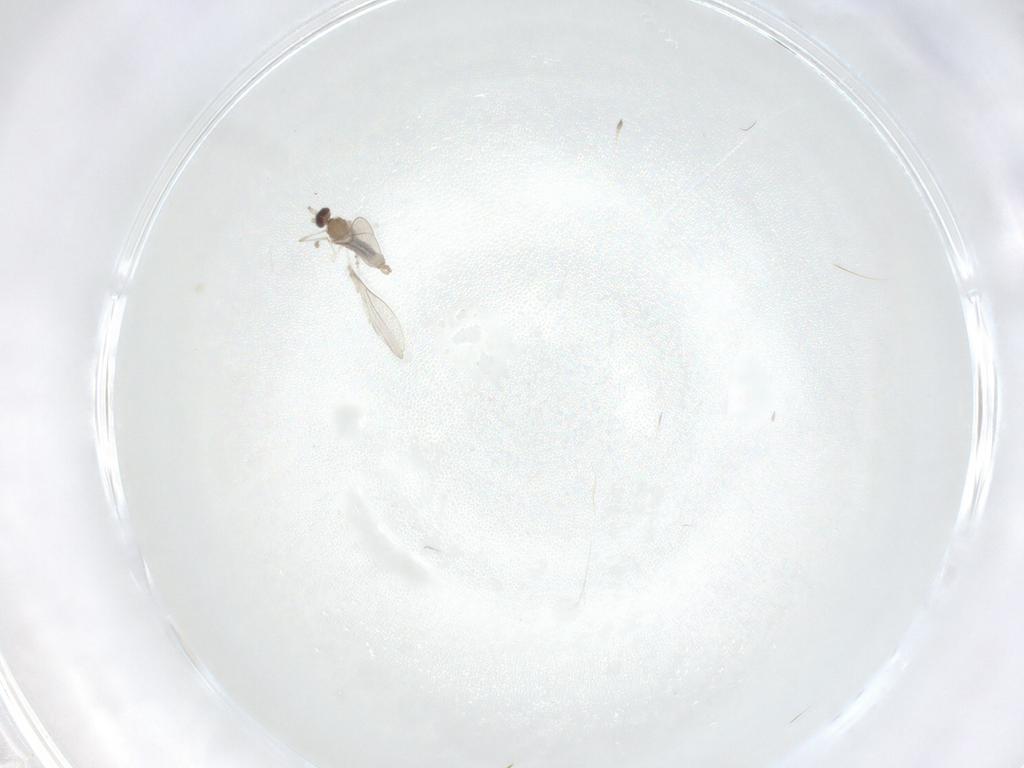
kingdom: Animalia
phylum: Arthropoda
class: Insecta
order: Diptera
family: Cecidomyiidae
